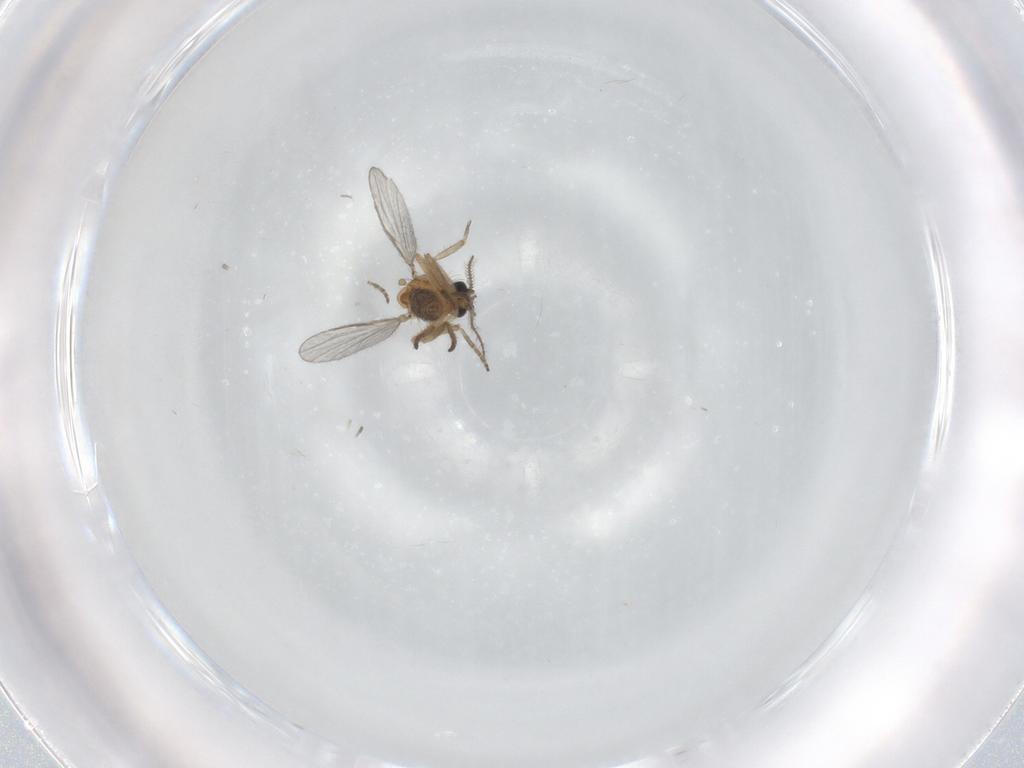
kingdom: Animalia
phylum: Arthropoda
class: Insecta
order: Diptera
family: Ceratopogonidae
